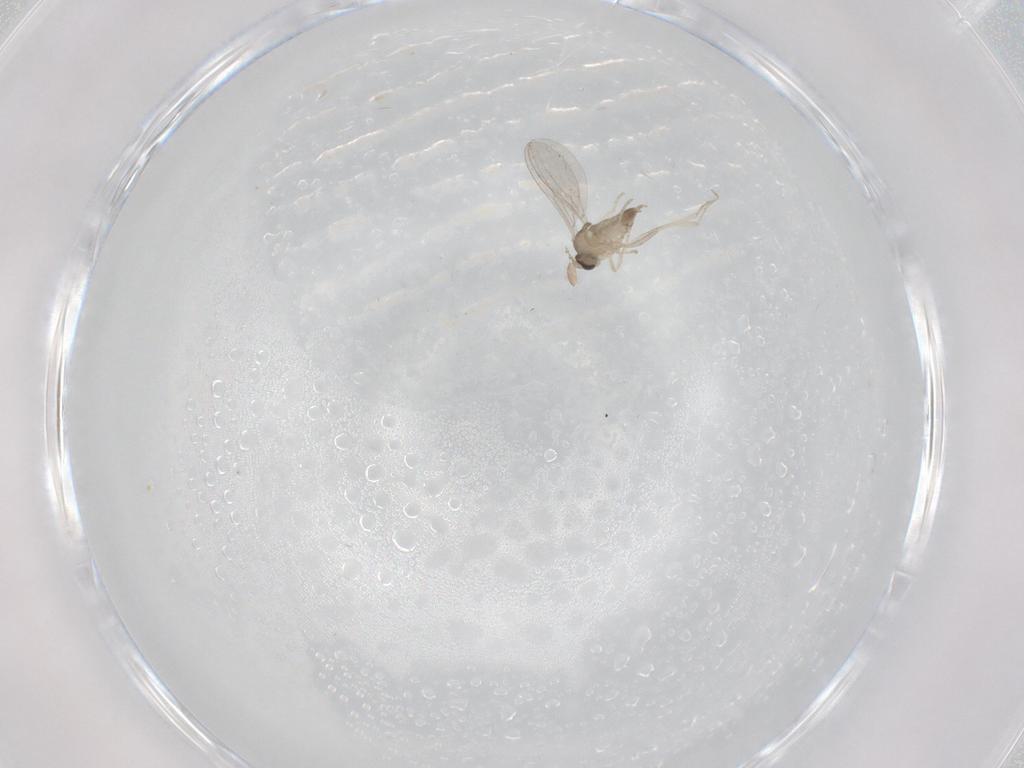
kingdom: Animalia
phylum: Arthropoda
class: Insecta
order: Diptera
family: Cecidomyiidae
